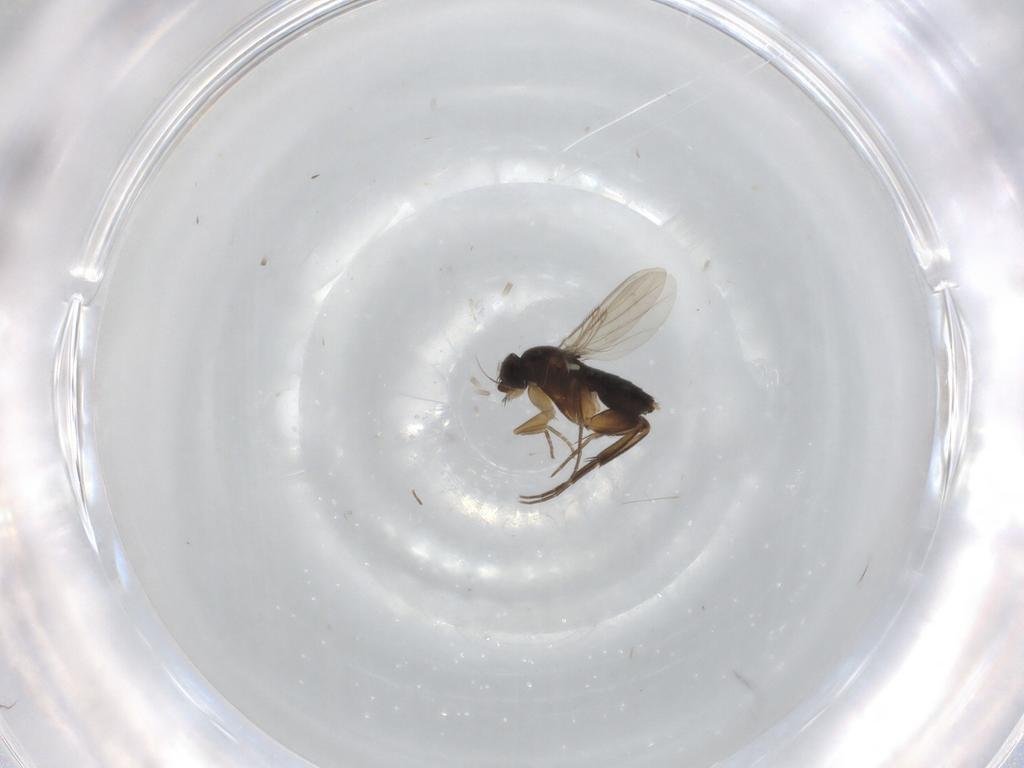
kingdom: Animalia
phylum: Arthropoda
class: Insecta
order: Diptera
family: Phoridae
